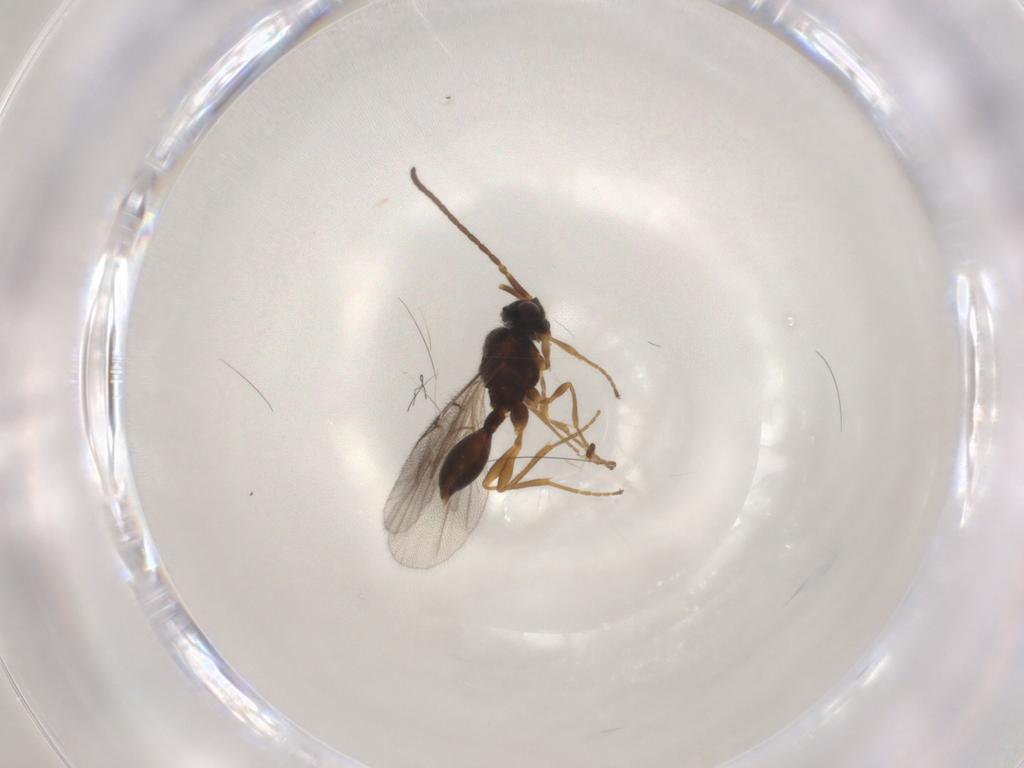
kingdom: Animalia
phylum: Arthropoda
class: Insecta
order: Hymenoptera
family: Diapriidae
